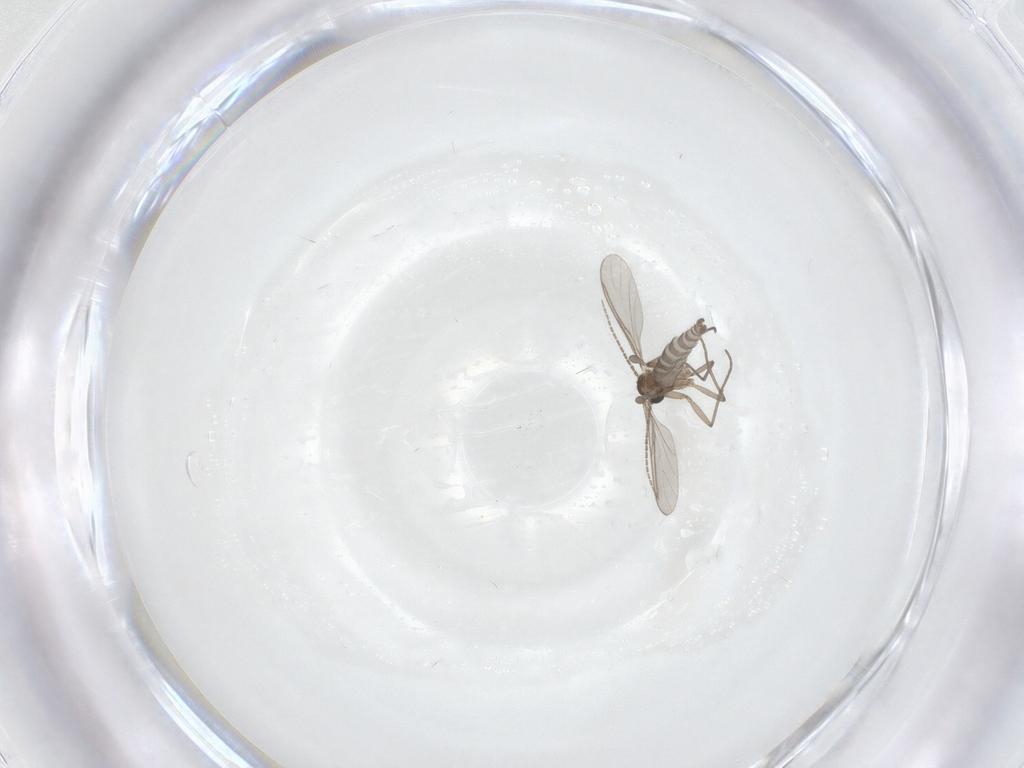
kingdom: Animalia
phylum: Arthropoda
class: Insecta
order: Diptera
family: Sciaridae
